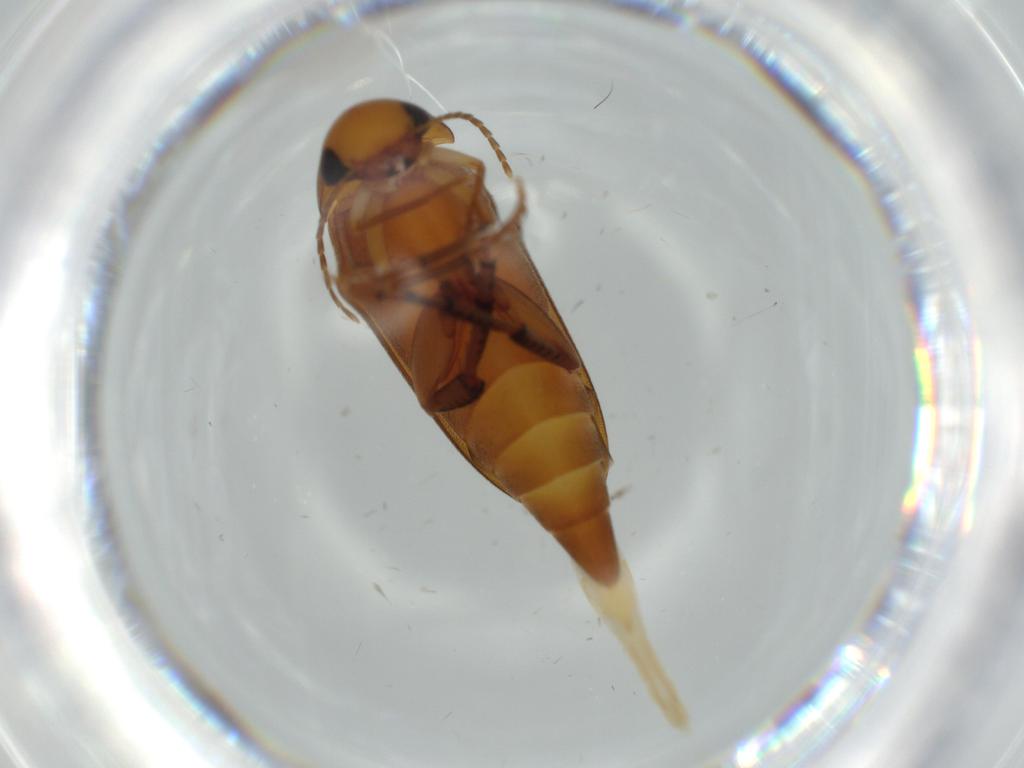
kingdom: Animalia
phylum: Arthropoda
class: Insecta
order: Coleoptera
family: Mordellidae
